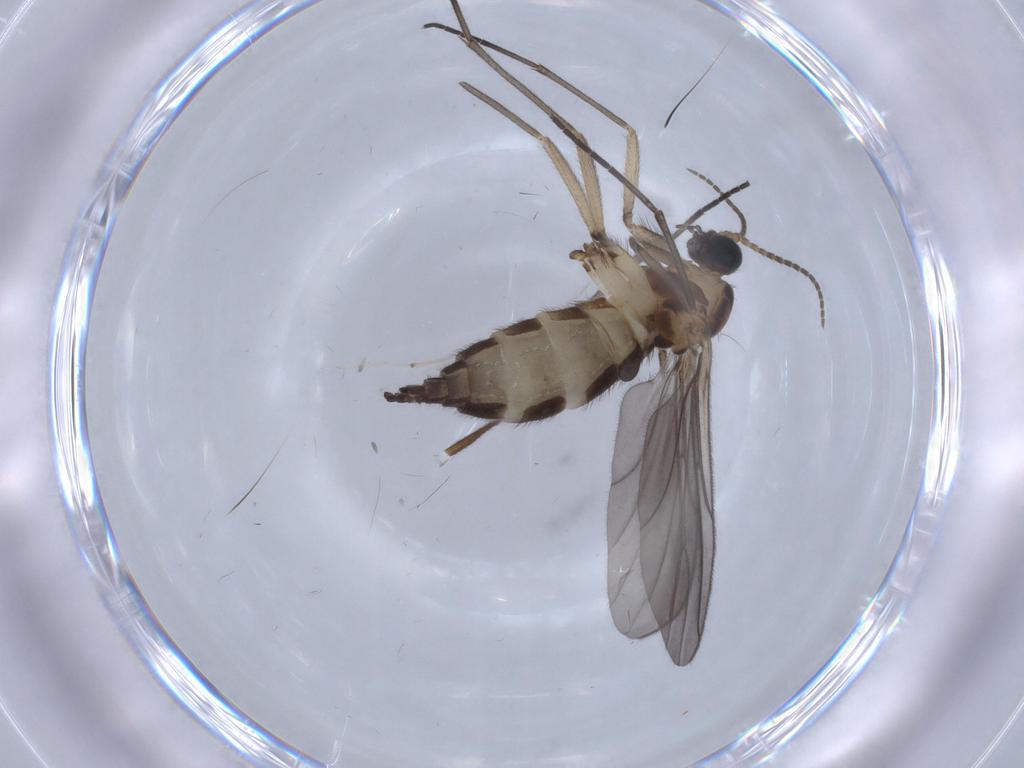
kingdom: Animalia
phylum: Arthropoda
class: Insecta
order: Diptera
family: Sciaridae
